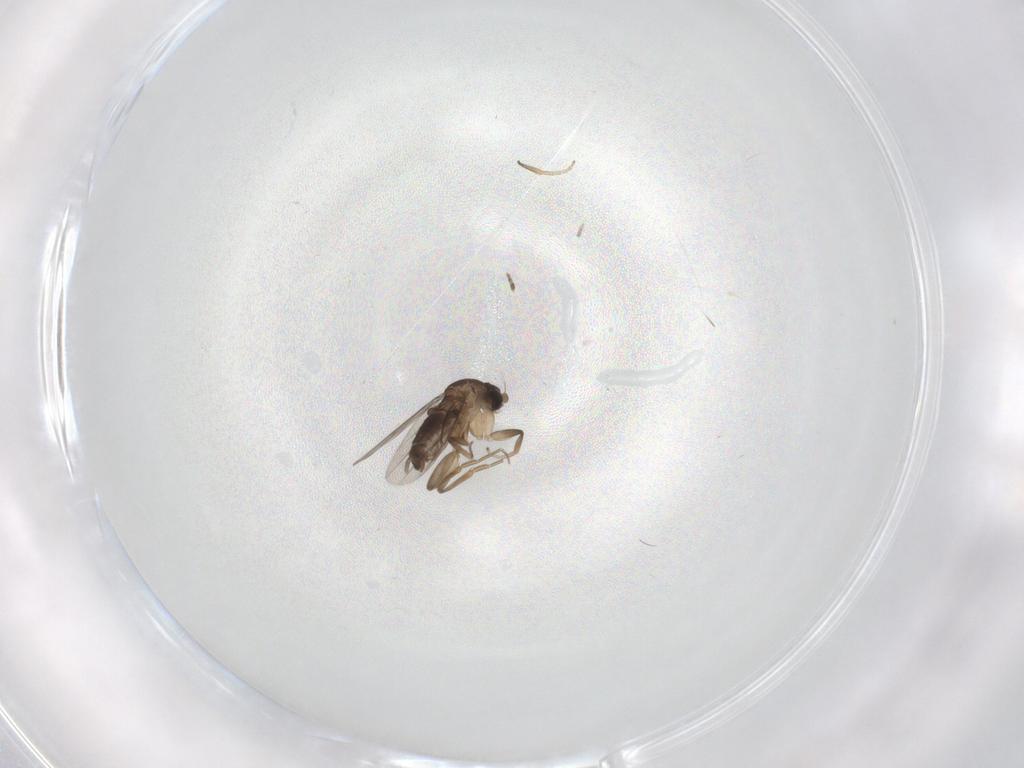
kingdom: Animalia
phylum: Arthropoda
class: Insecta
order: Diptera
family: Phoridae
